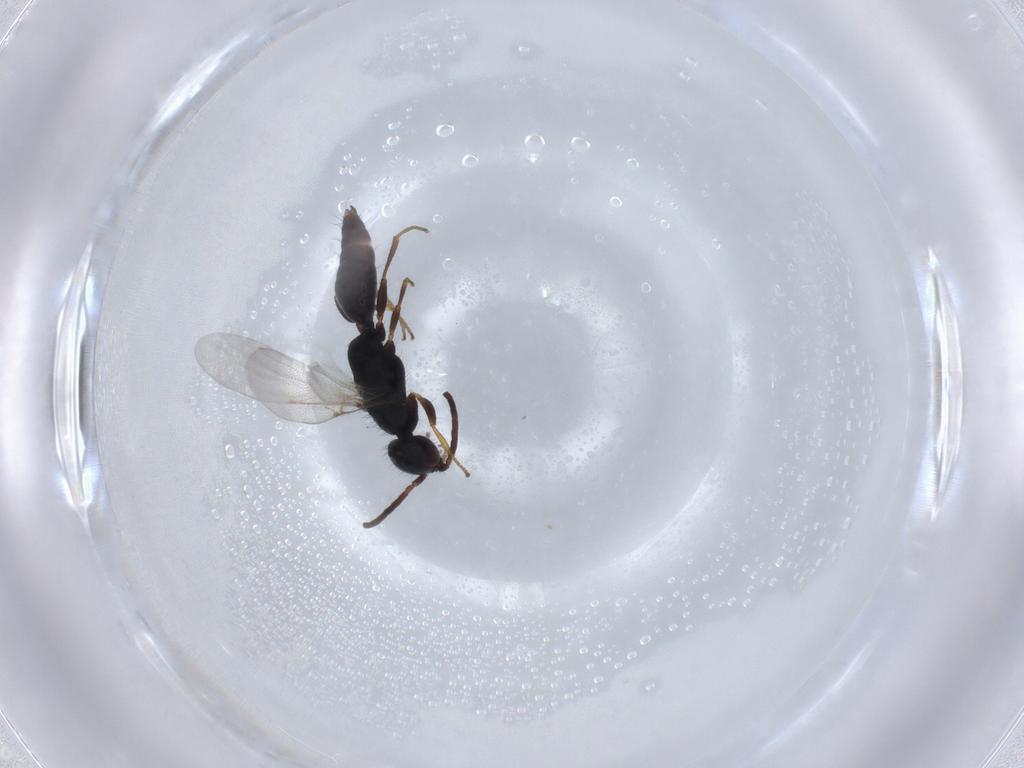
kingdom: Animalia
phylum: Arthropoda
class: Insecta
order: Hymenoptera
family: Bethylidae
